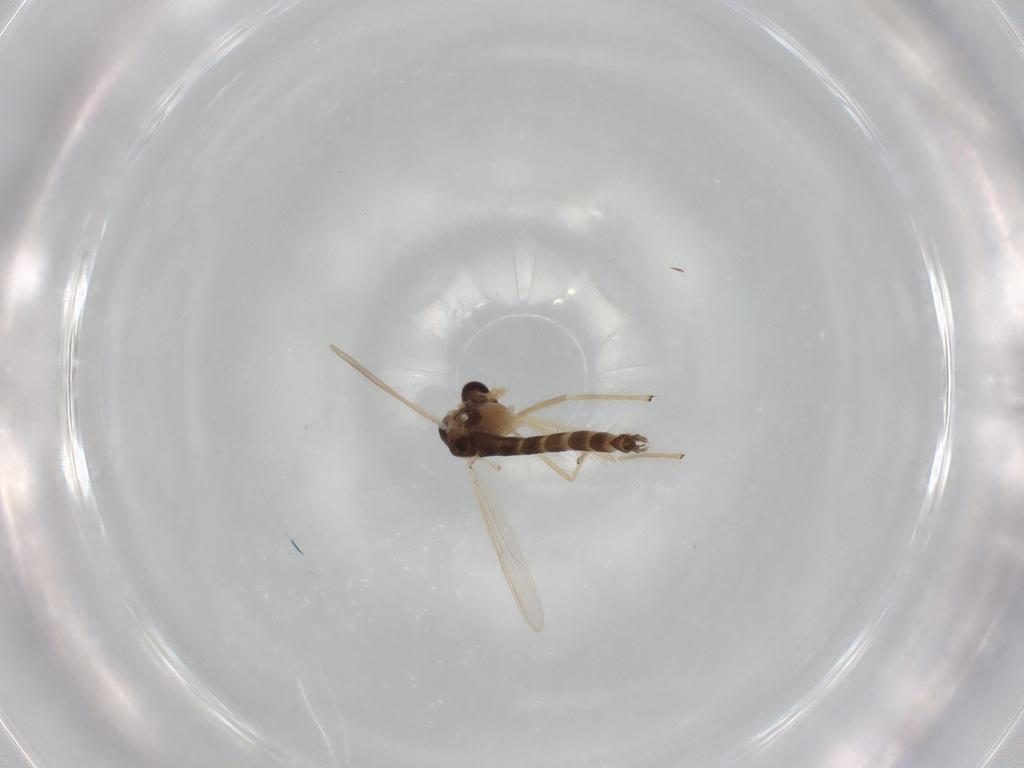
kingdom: Animalia
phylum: Arthropoda
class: Insecta
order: Diptera
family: Chironomidae
